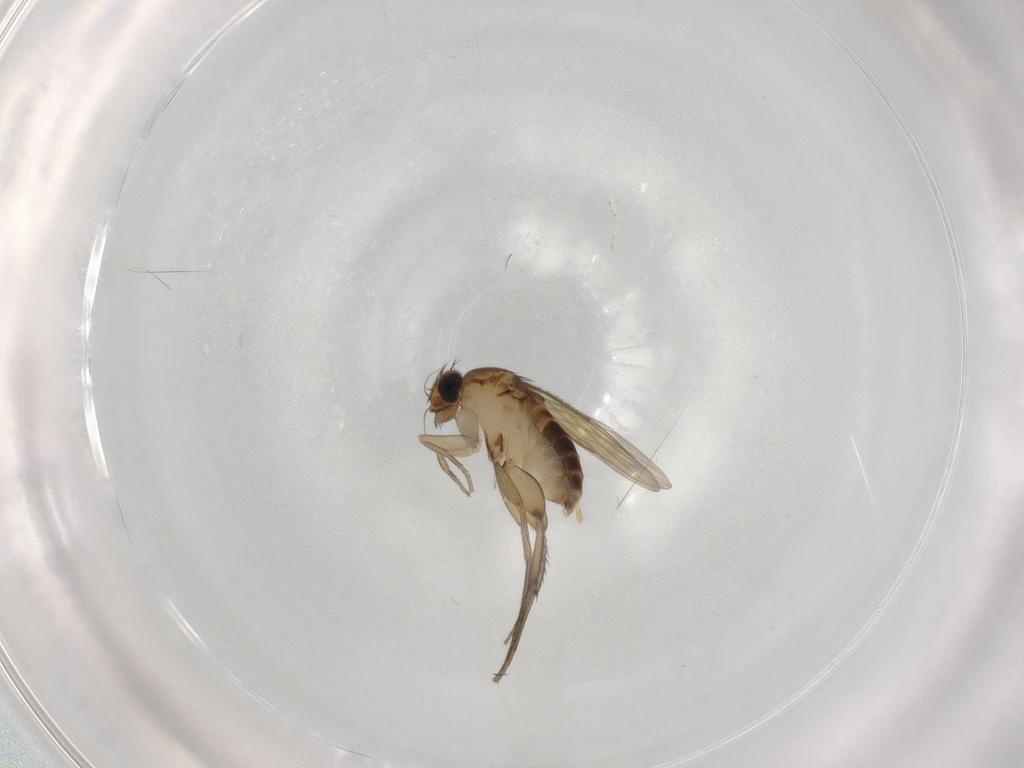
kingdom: Animalia
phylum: Arthropoda
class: Insecta
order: Diptera
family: Phoridae
